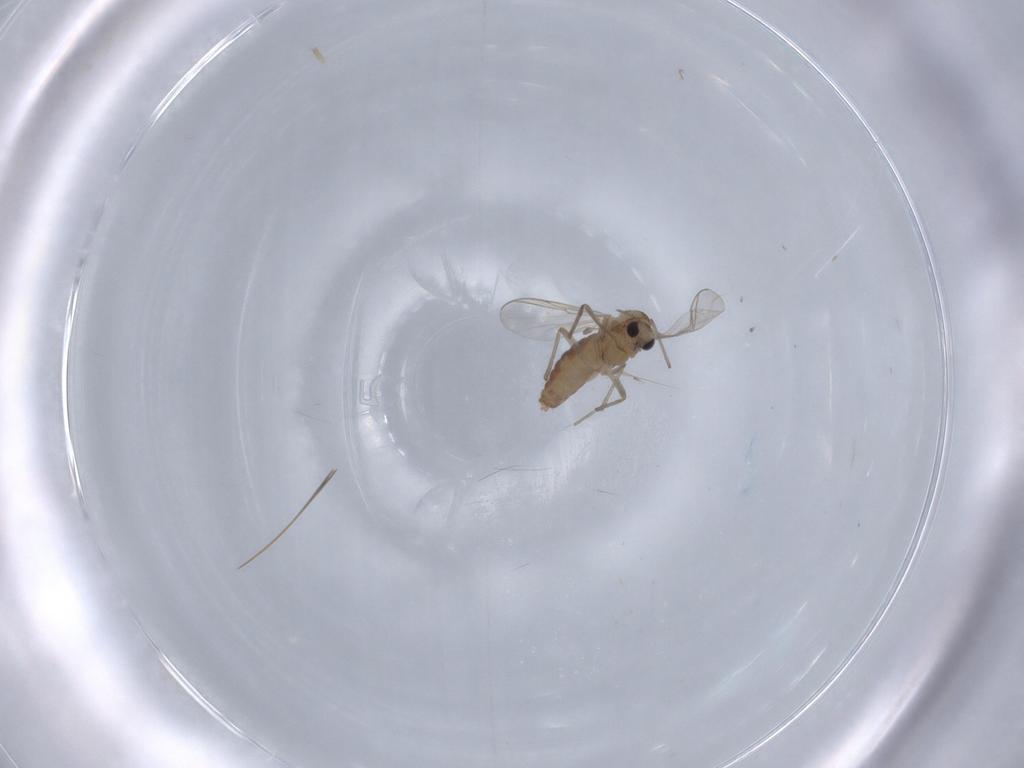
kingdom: Animalia
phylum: Arthropoda
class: Insecta
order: Diptera
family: Chironomidae
